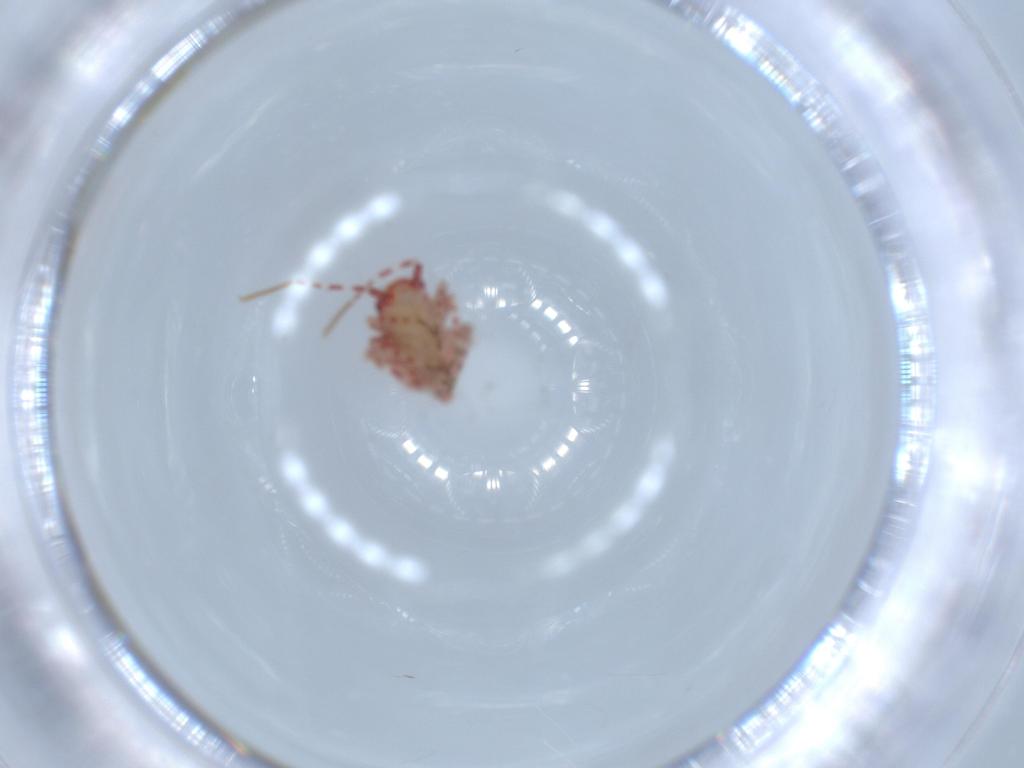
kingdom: Animalia
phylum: Arthropoda
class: Insecta
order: Hemiptera
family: Miridae
